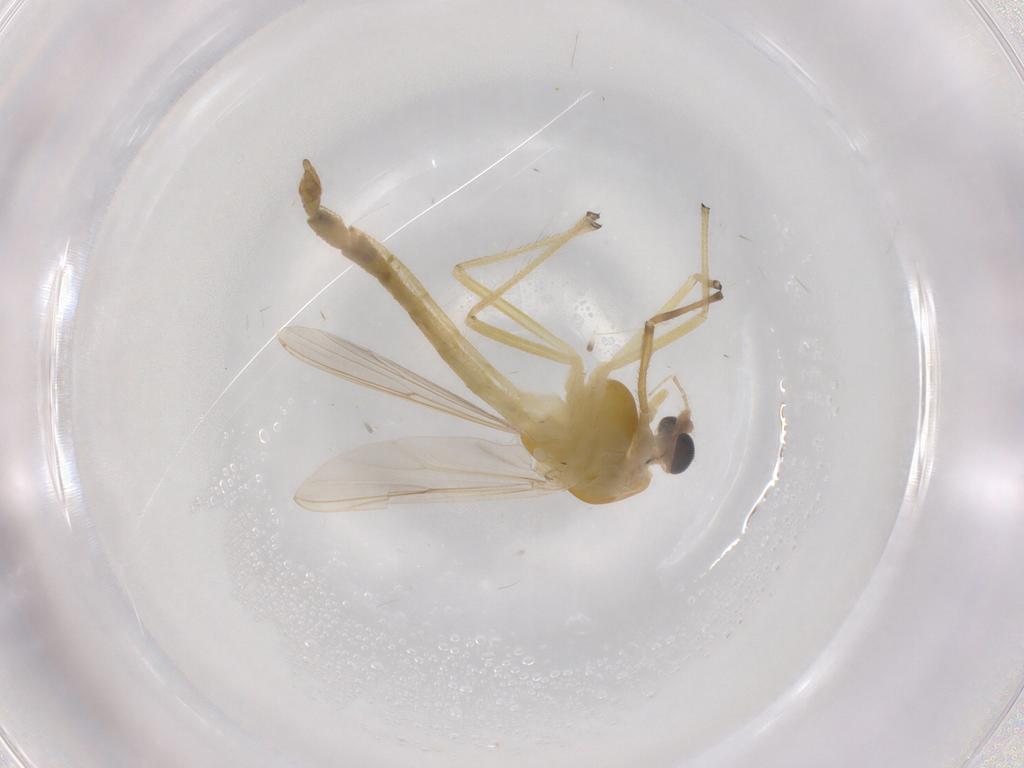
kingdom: Animalia
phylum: Arthropoda
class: Insecta
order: Diptera
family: Chironomidae
